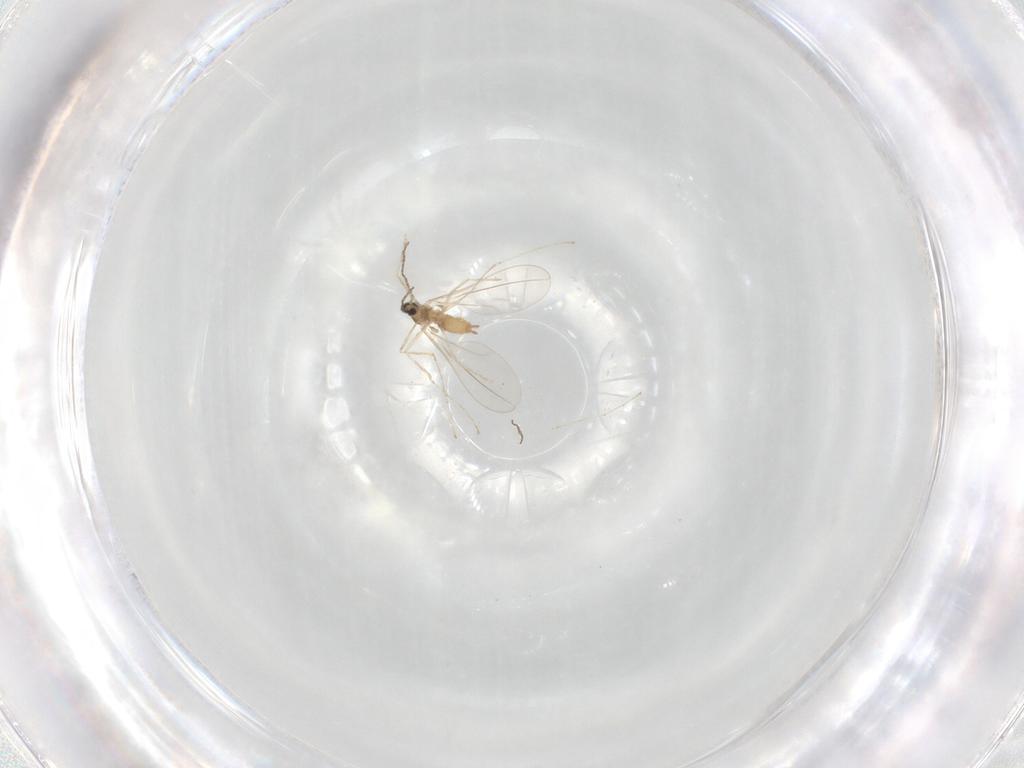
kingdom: Animalia
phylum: Arthropoda
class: Insecta
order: Diptera
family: Cecidomyiidae
